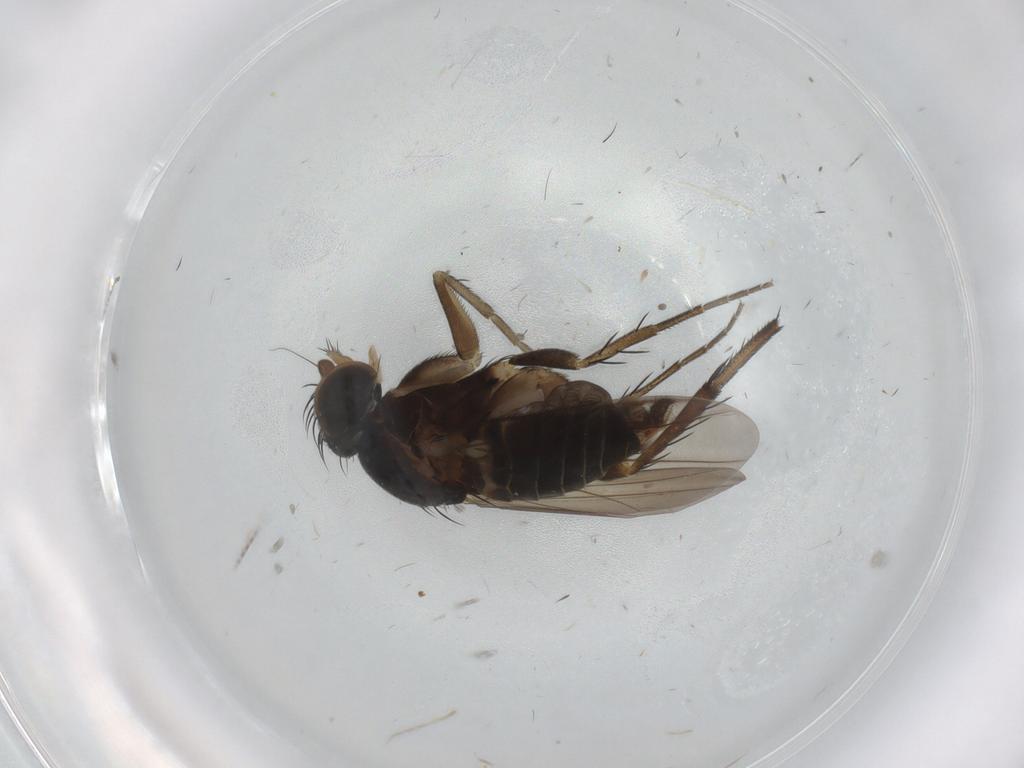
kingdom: Animalia
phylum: Arthropoda
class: Insecta
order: Diptera
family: Phoridae
